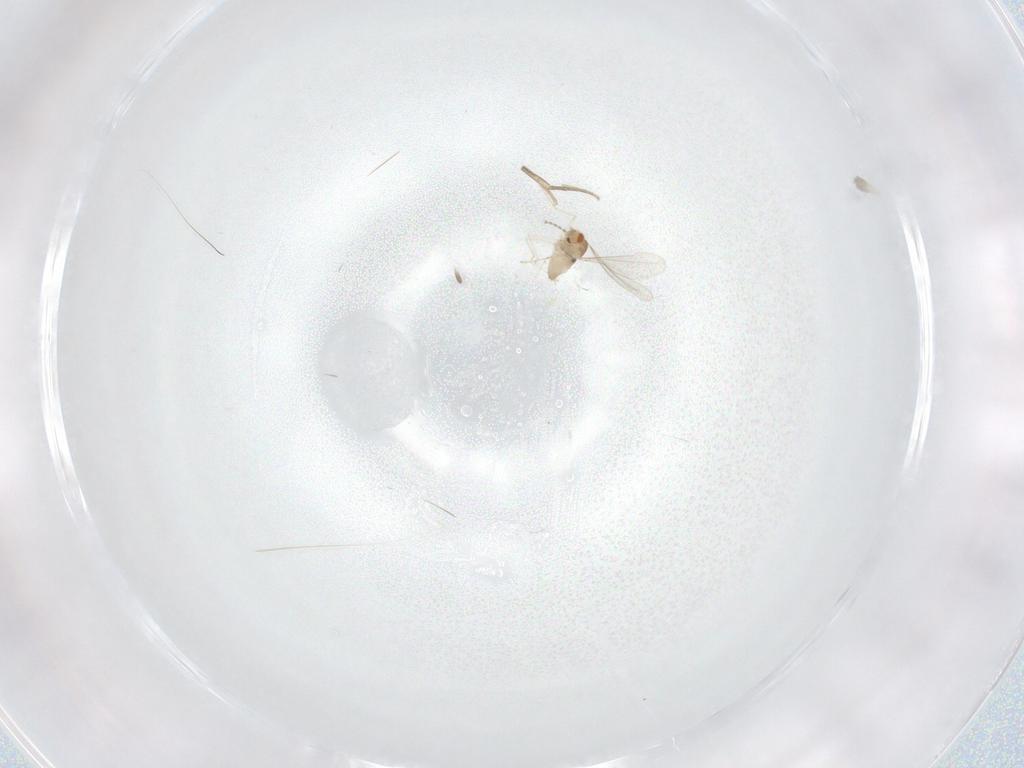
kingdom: Animalia
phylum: Arthropoda
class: Insecta
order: Diptera
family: Phoridae
